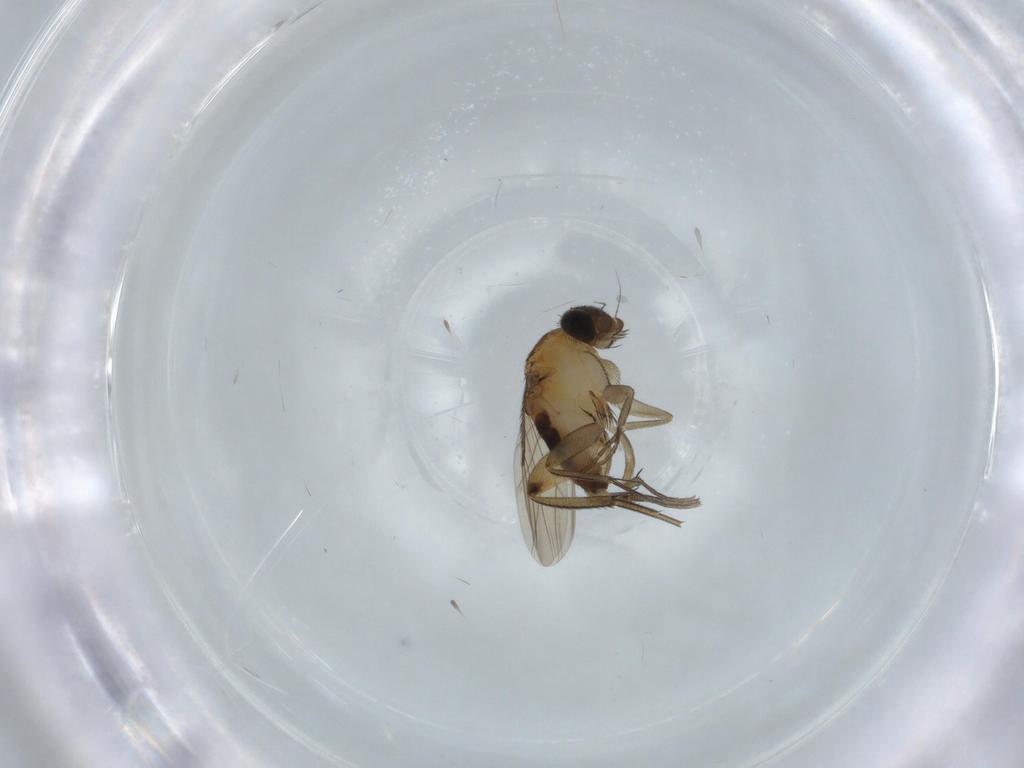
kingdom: Animalia
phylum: Arthropoda
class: Insecta
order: Diptera
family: Phoridae
